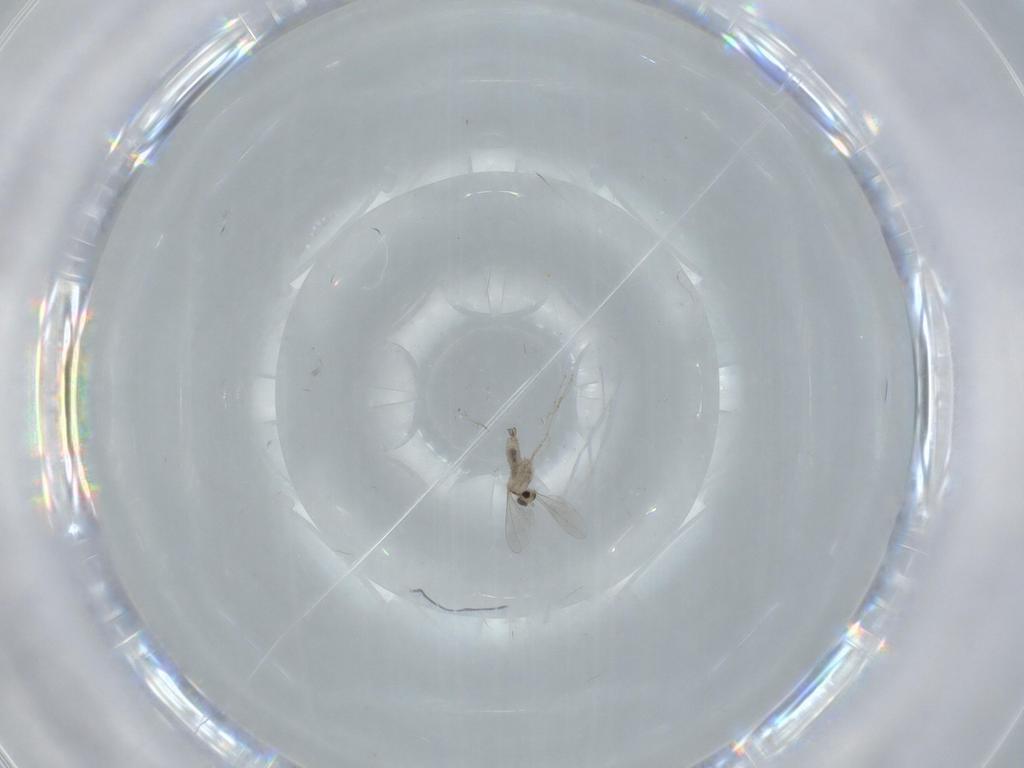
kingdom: Animalia
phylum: Arthropoda
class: Insecta
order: Diptera
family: Cecidomyiidae
